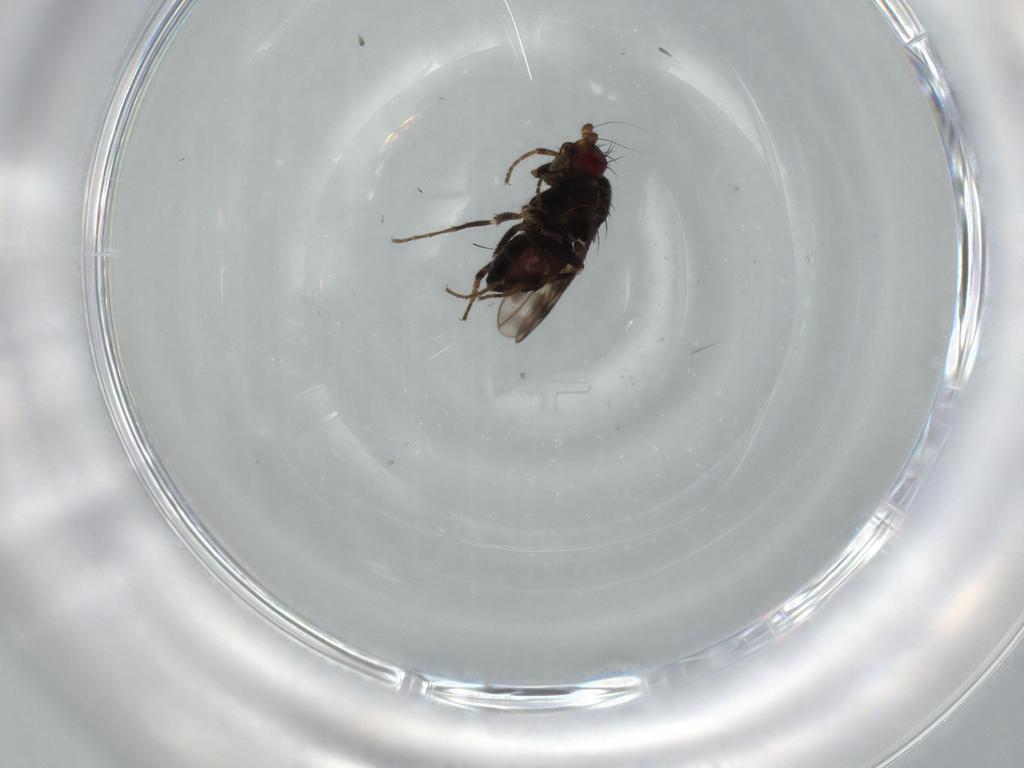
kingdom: Animalia
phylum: Arthropoda
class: Insecta
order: Diptera
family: Sphaeroceridae
